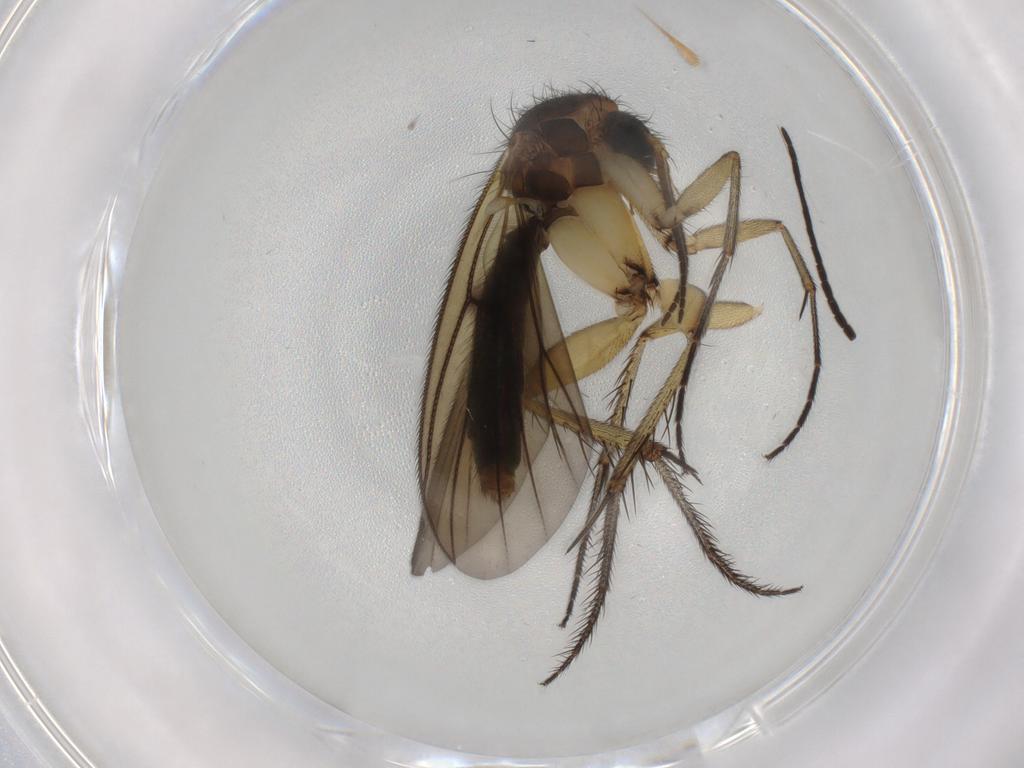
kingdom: Animalia
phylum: Arthropoda
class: Insecta
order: Diptera
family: Mycetophilidae
